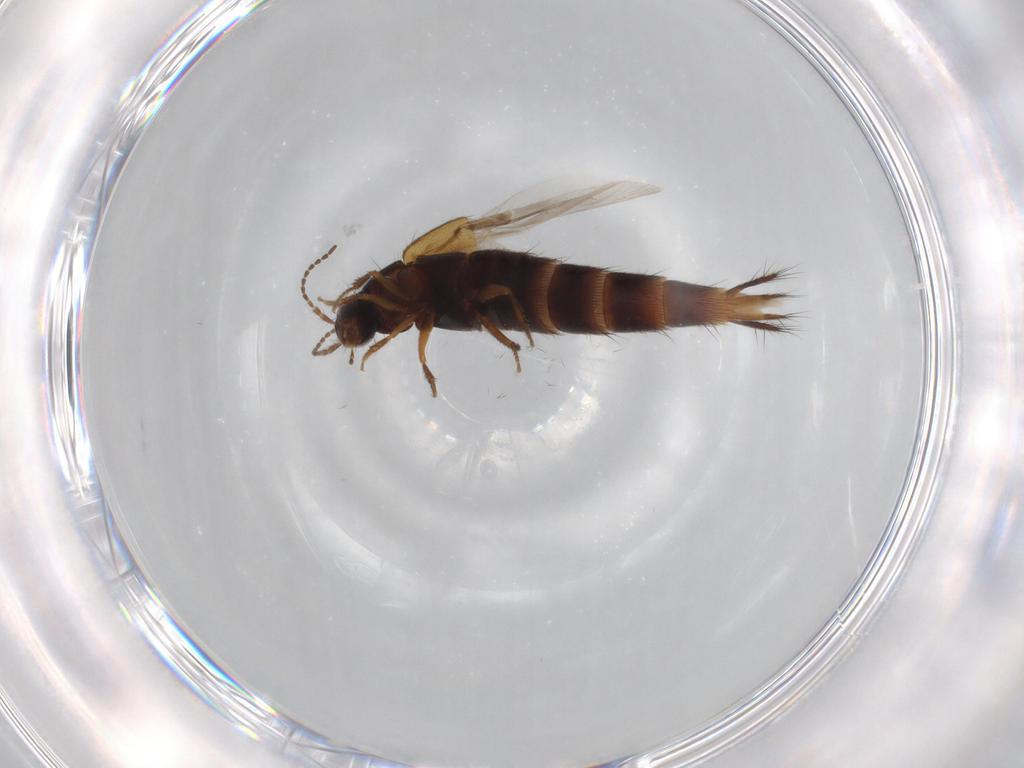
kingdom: Animalia
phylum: Arthropoda
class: Insecta
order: Coleoptera
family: Staphylinidae
